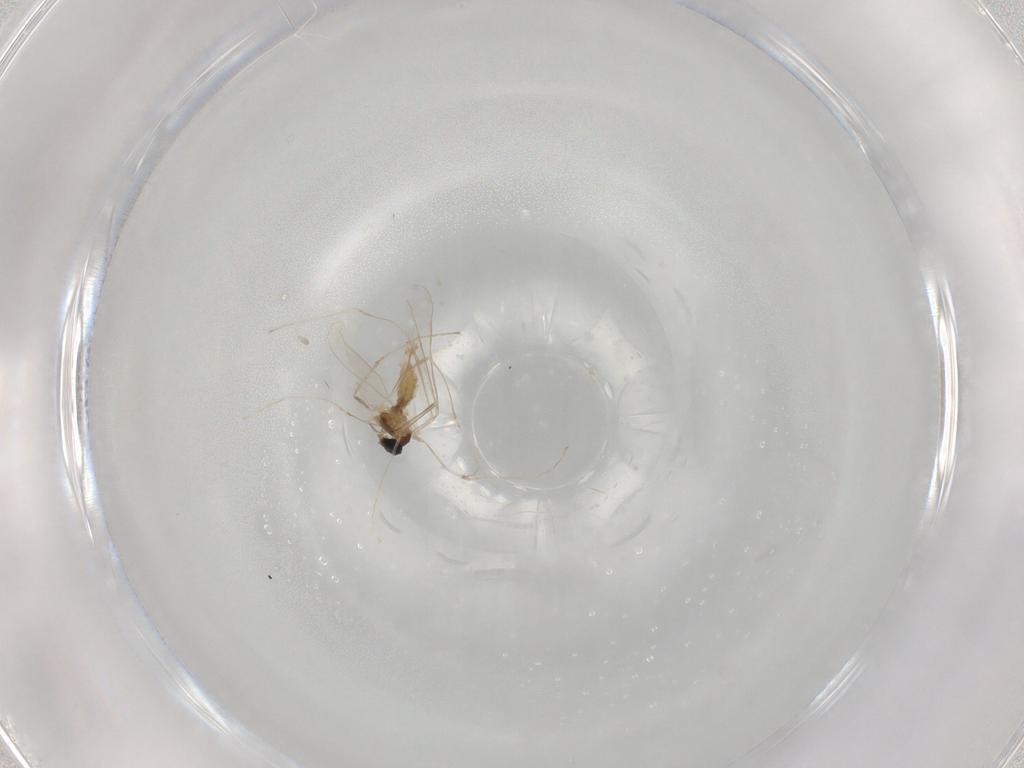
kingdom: Animalia
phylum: Arthropoda
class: Insecta
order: Diptera
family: Cecidomyiidae
